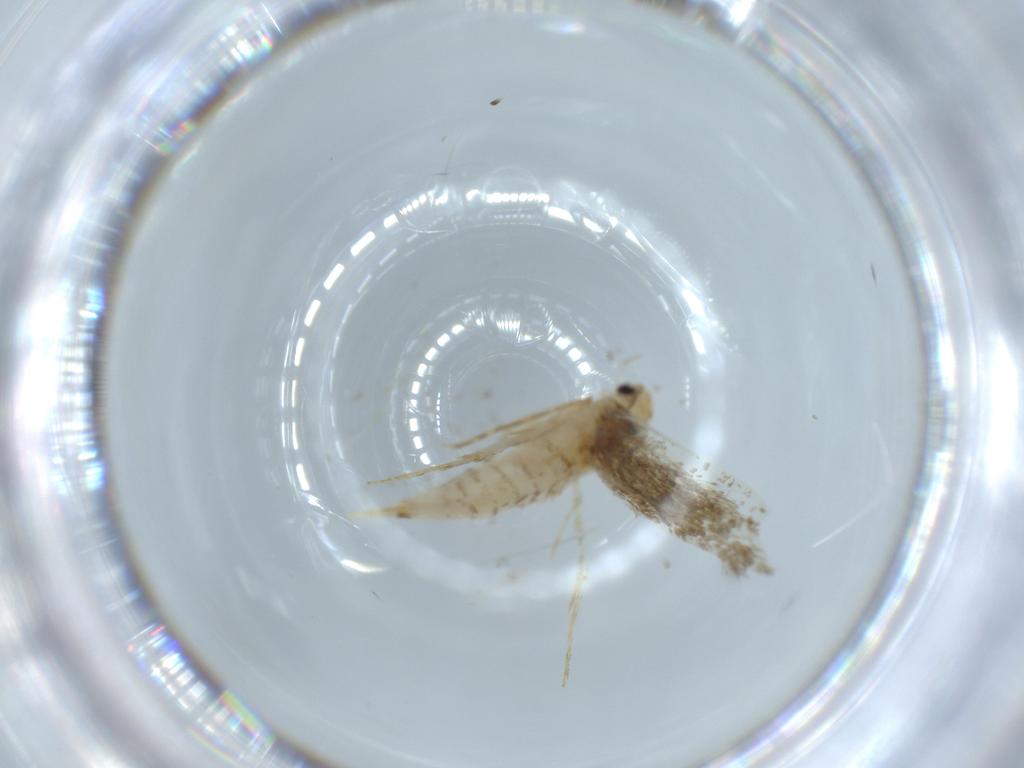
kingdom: Animalia
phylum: Arthropoda
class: Insecta
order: Lepidoptera
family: Tineidae
